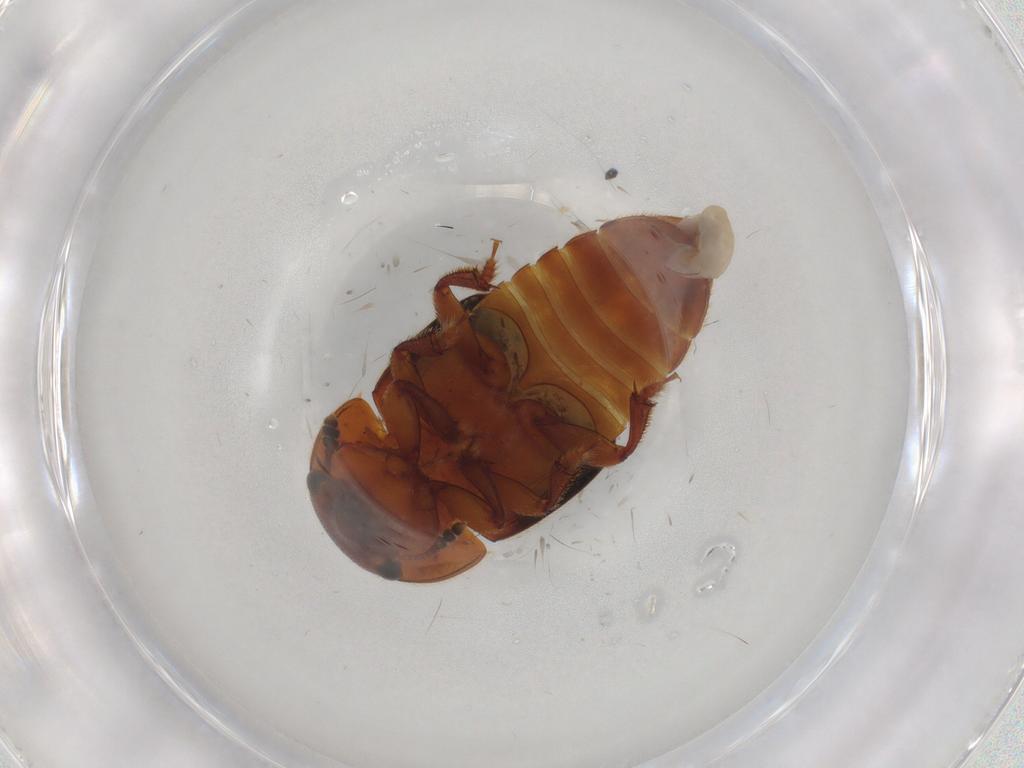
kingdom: Animalia
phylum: Arthropoda
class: Insecta
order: Coleoptera
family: Nitidulidae
